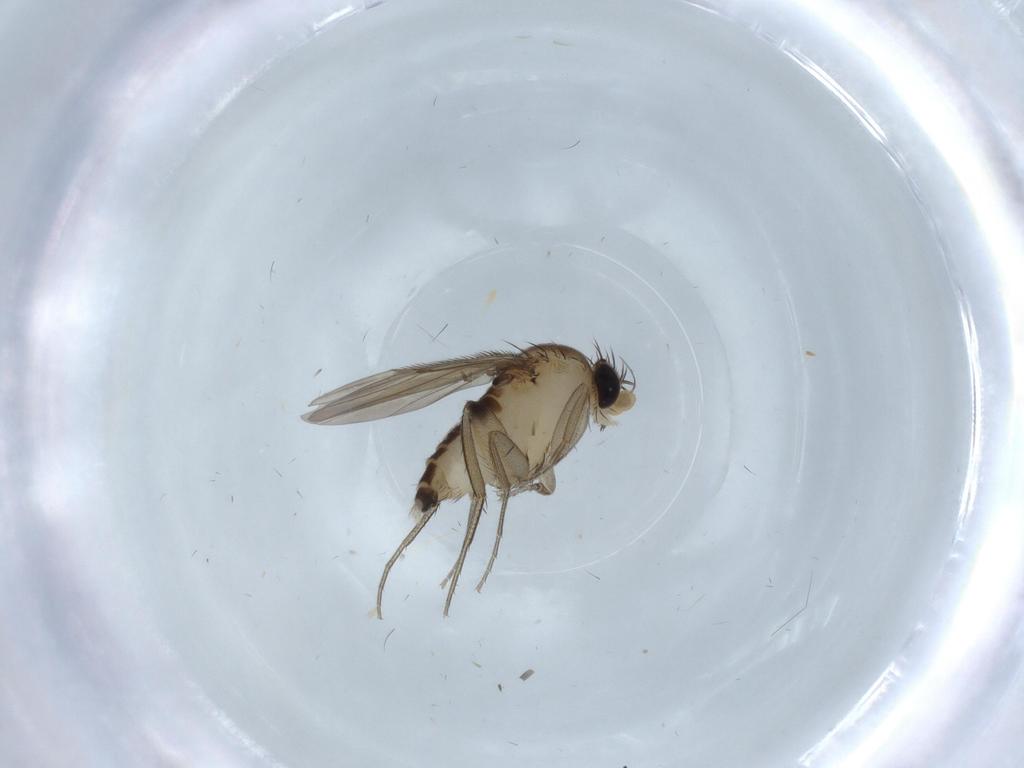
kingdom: Animalia
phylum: Arthropoda
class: Insecta
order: Diptera
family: Phoridae
